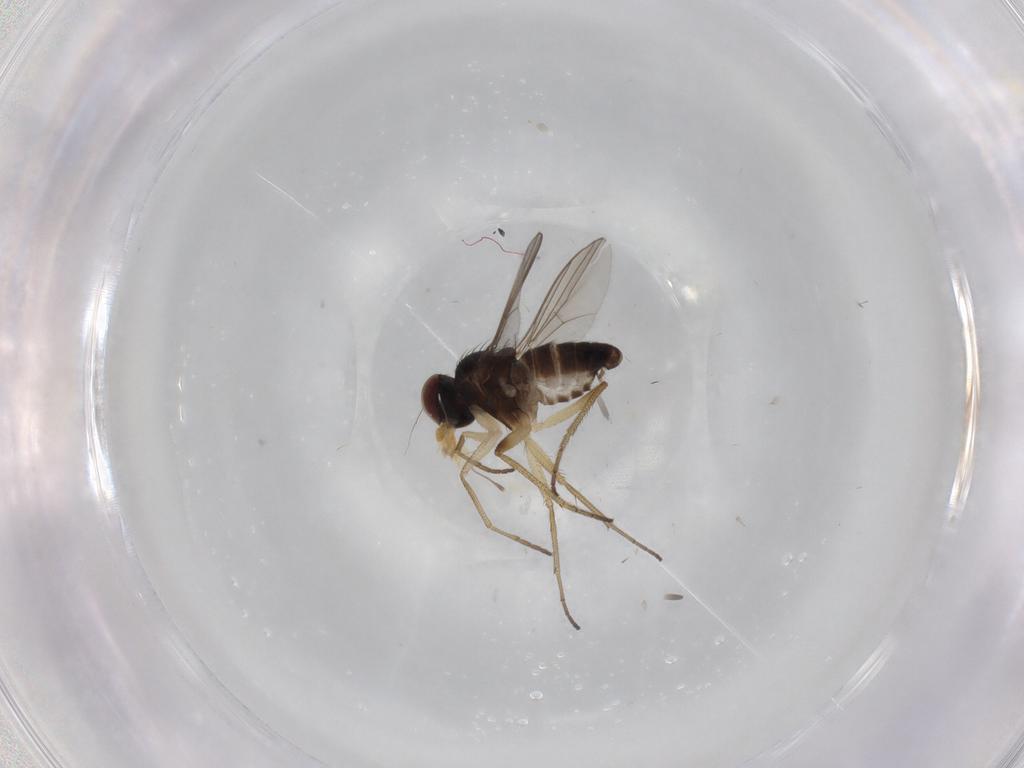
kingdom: Animalia
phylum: Arthropoda
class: Insecta
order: Diptera
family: Dolichopodidae
